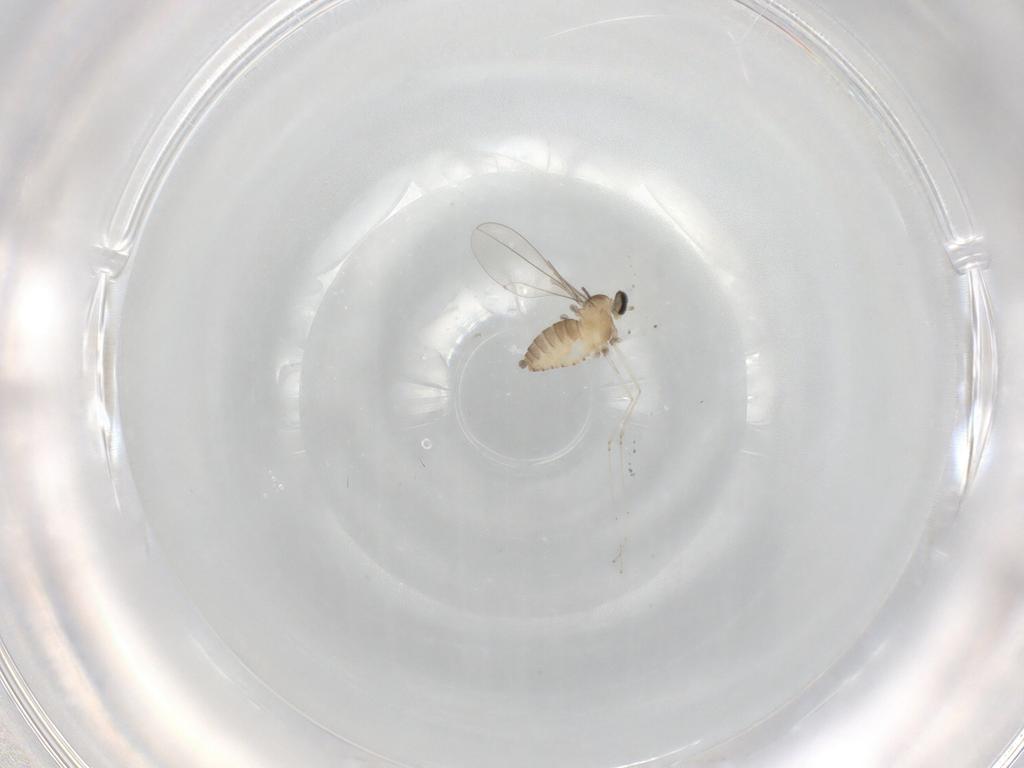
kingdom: Animalia
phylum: Arthropoda
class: Insecta
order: Diptera
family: Cecidomyiidae
